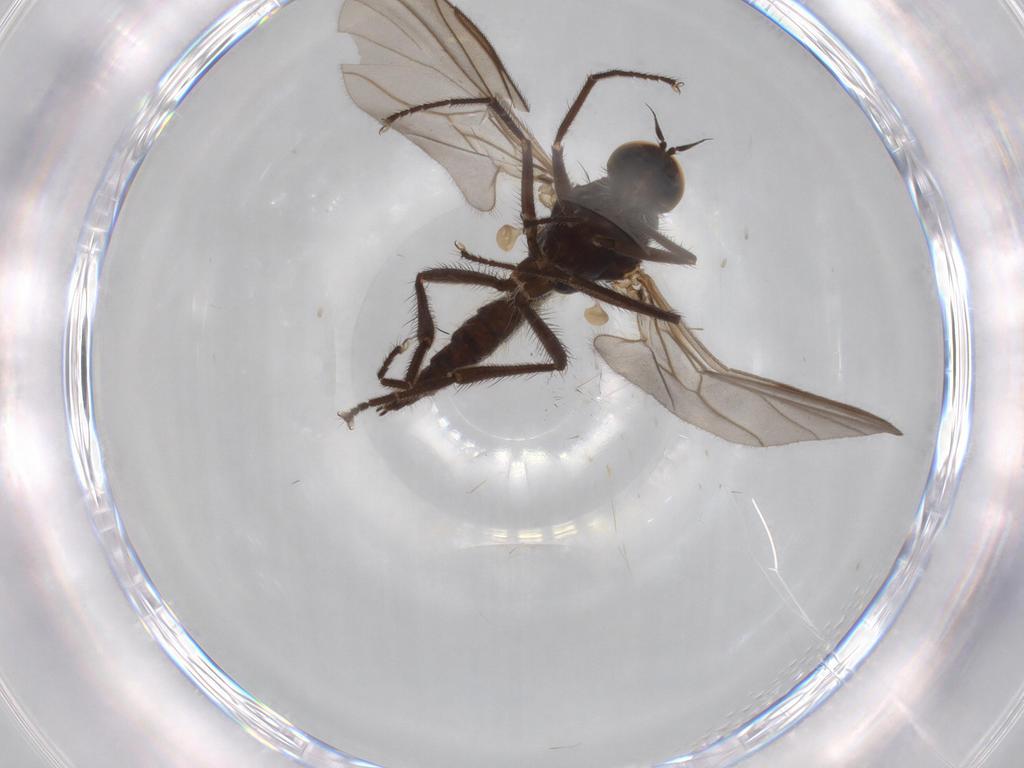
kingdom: Animalia
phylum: Arthropoda
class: Insecta
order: Diptera
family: Hybotidae
